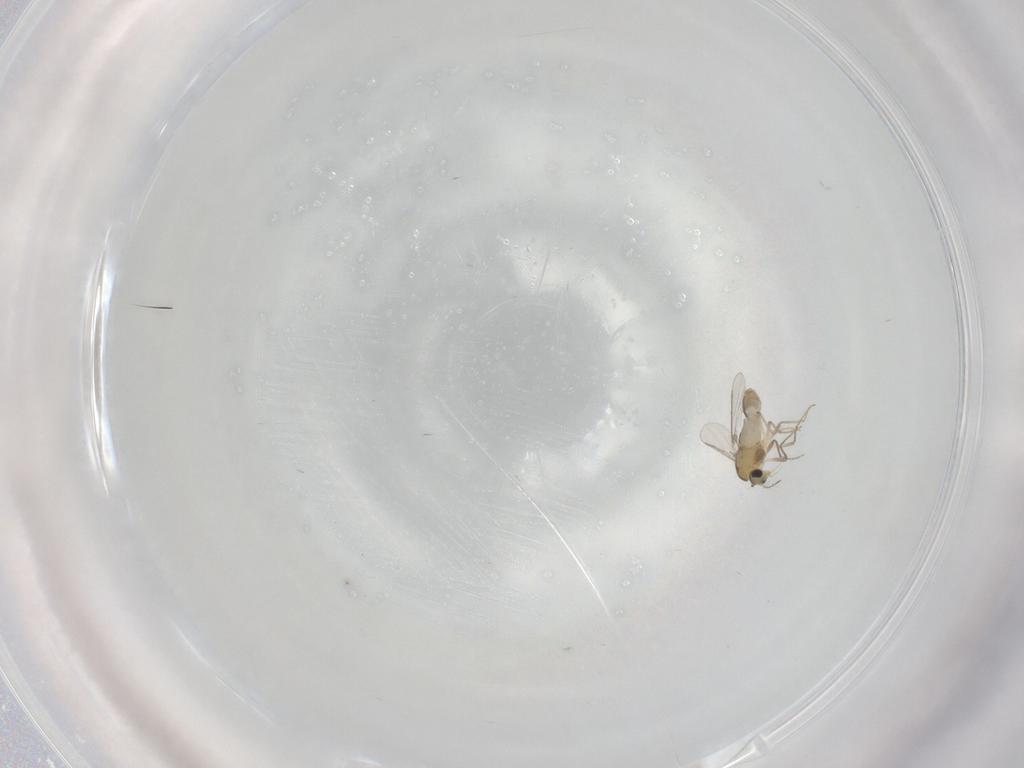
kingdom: Animalia
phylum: Arthropoda
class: Insecta
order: Diptera
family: Chironomidae
